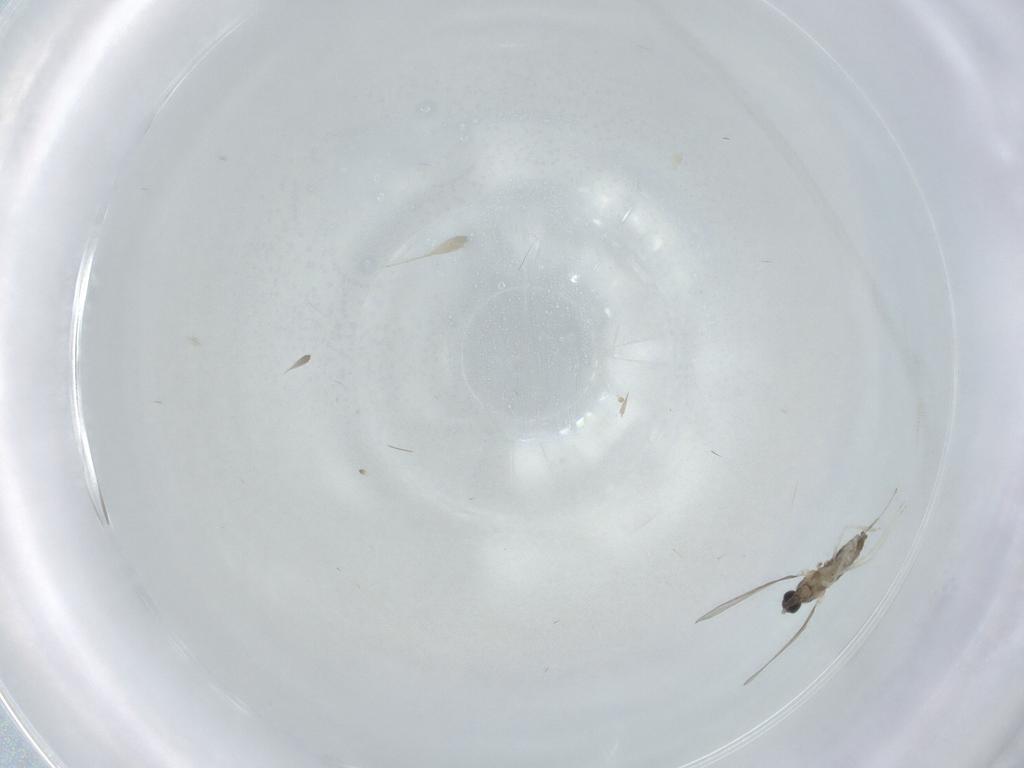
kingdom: Animalia
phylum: Arthropoda
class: Insecta
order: Diptera
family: Cecidomyiidae
